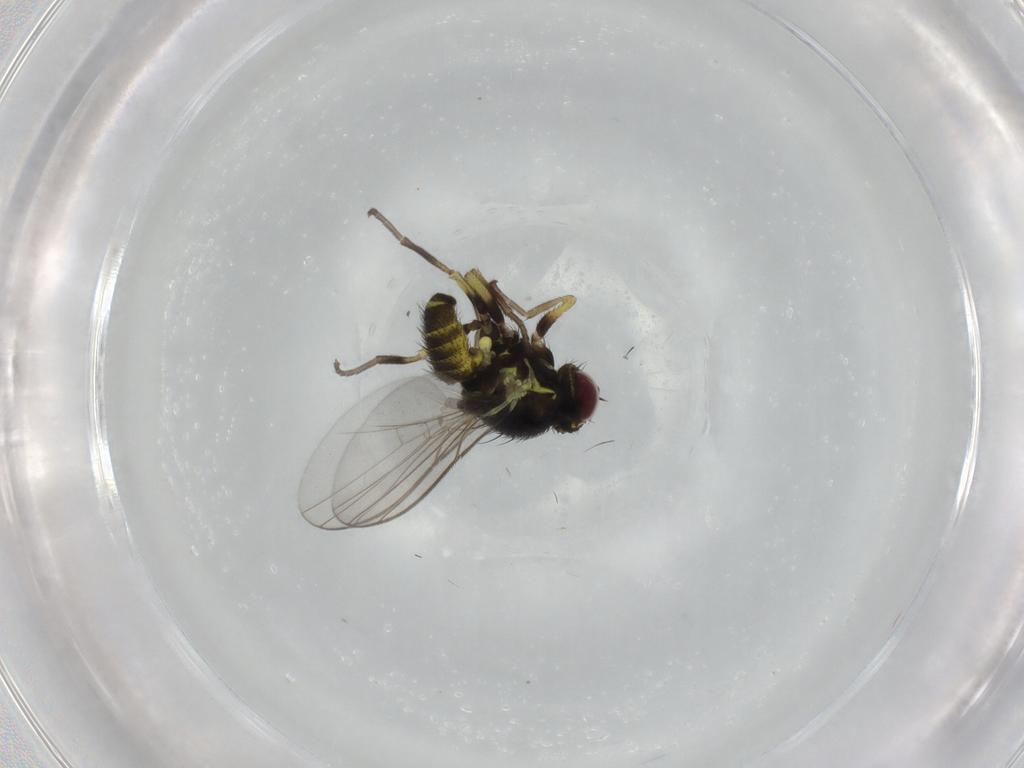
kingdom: Animalia
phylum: Arthropoda
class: Insecta
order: Diptera
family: Agromyzidae
